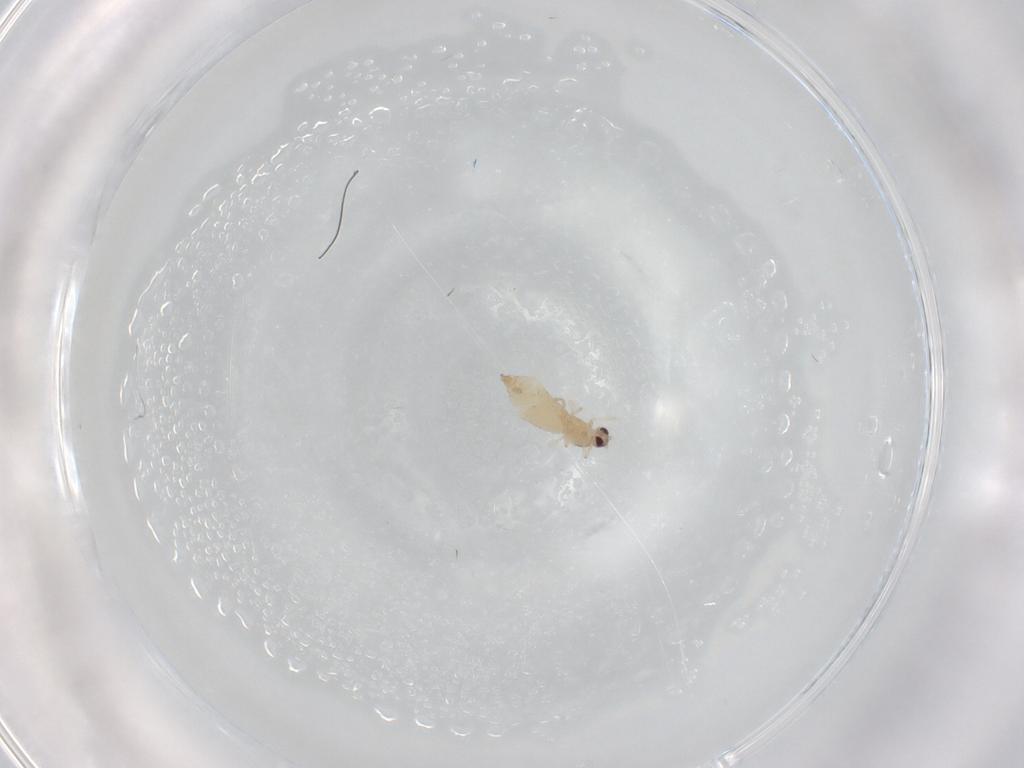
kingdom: Animalia
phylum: Arthropoda
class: Insecta
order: Diptera
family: Cecidomyiidae
